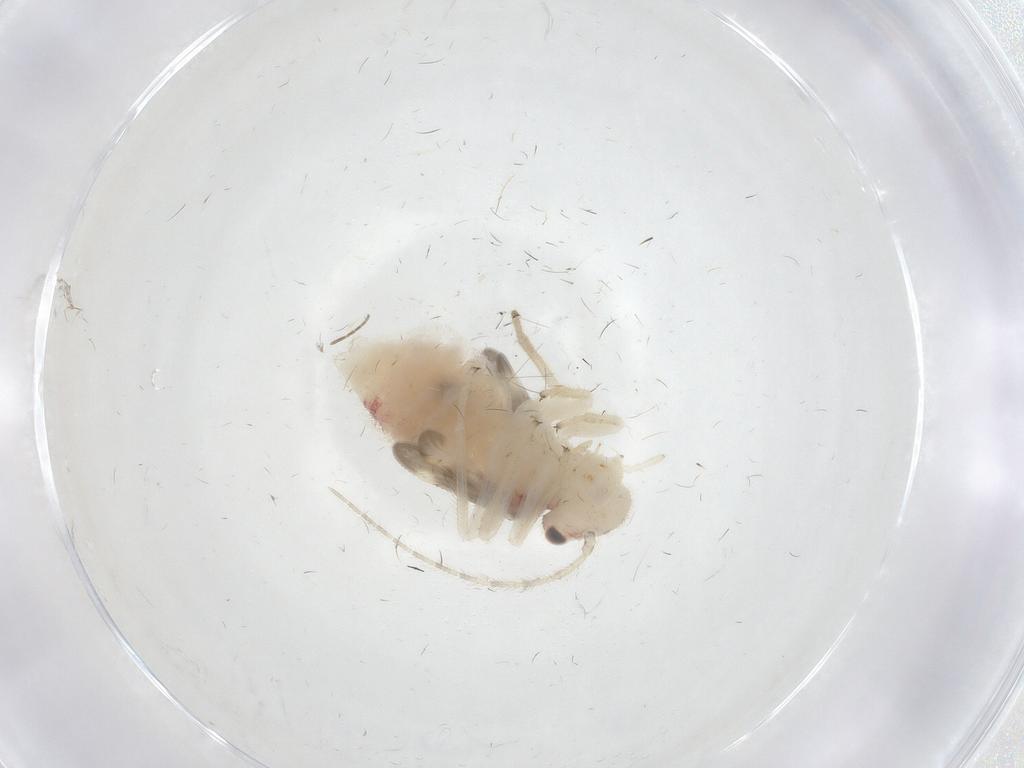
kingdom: Animalia
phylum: Arthropoda
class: Insecta
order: Psocodea
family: Amphipsocidae
